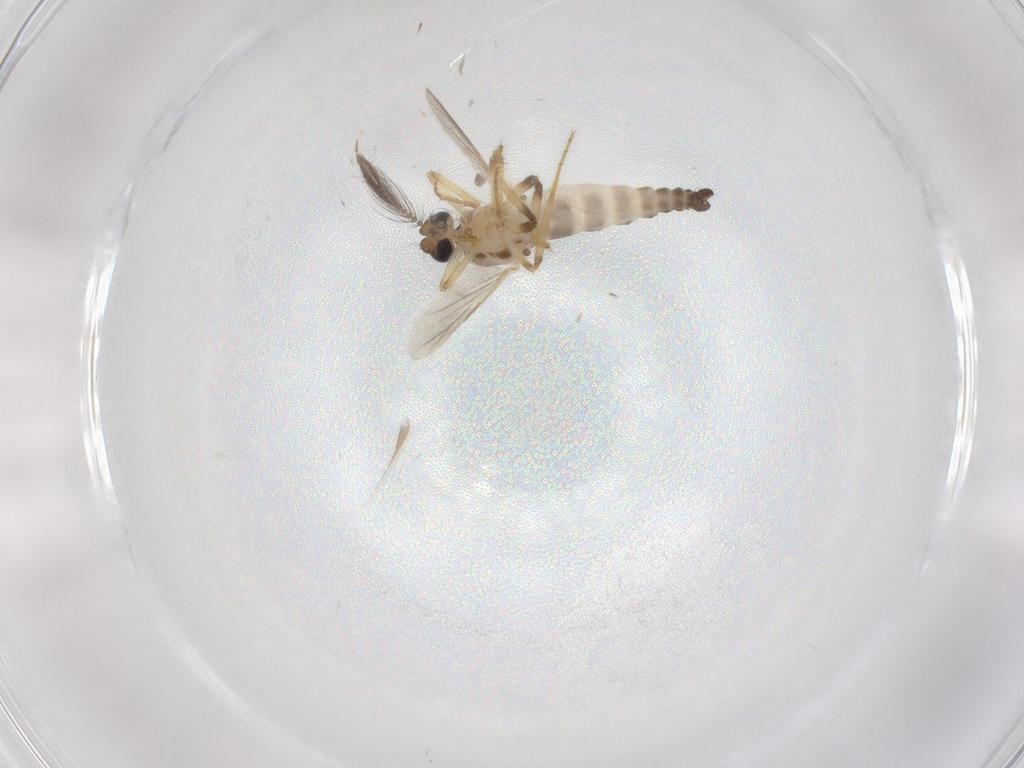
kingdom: Animalia
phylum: Arthropoda
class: Insecta
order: Diptera
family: Ceratopogonidae
